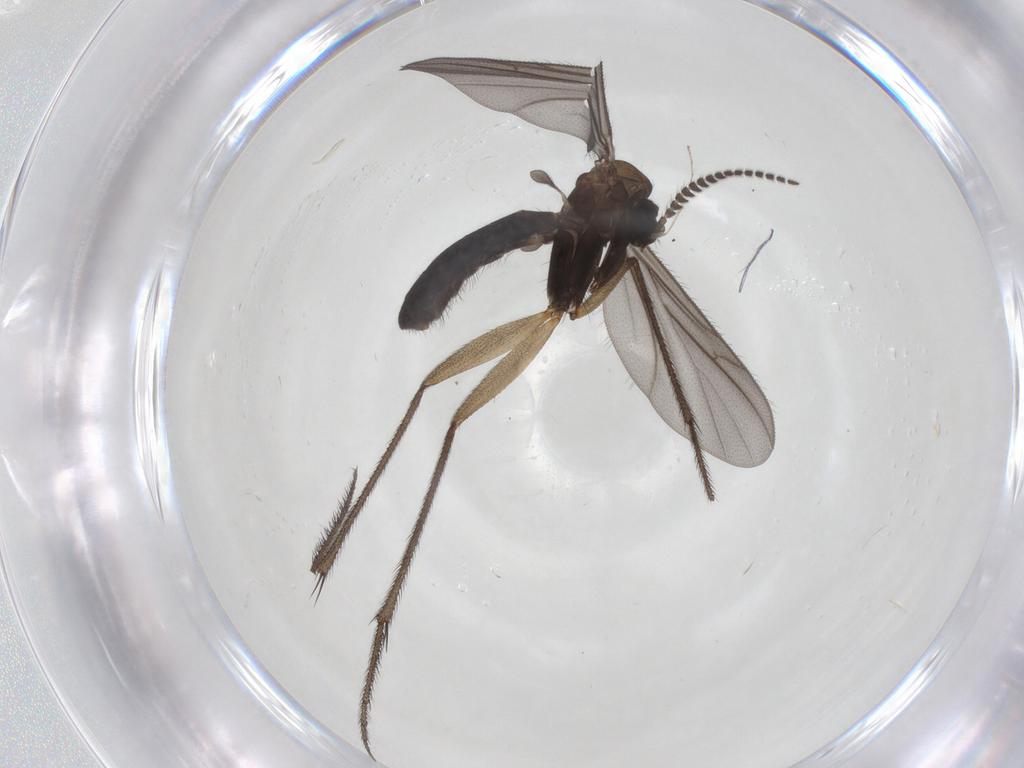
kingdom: Animalia
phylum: Arthropoda
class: Insecta
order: Diptera
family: Ditomyiidae
